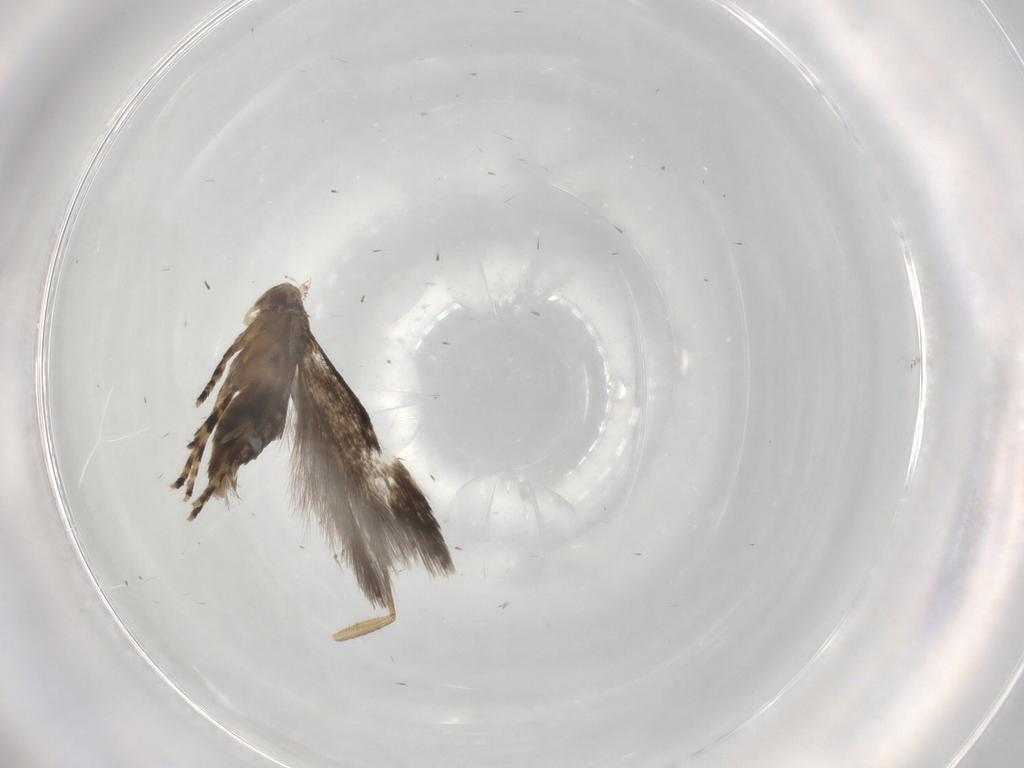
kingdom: Animalia
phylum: Arthropoda
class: Insecta
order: Lepidoptera
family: Elachistidae
